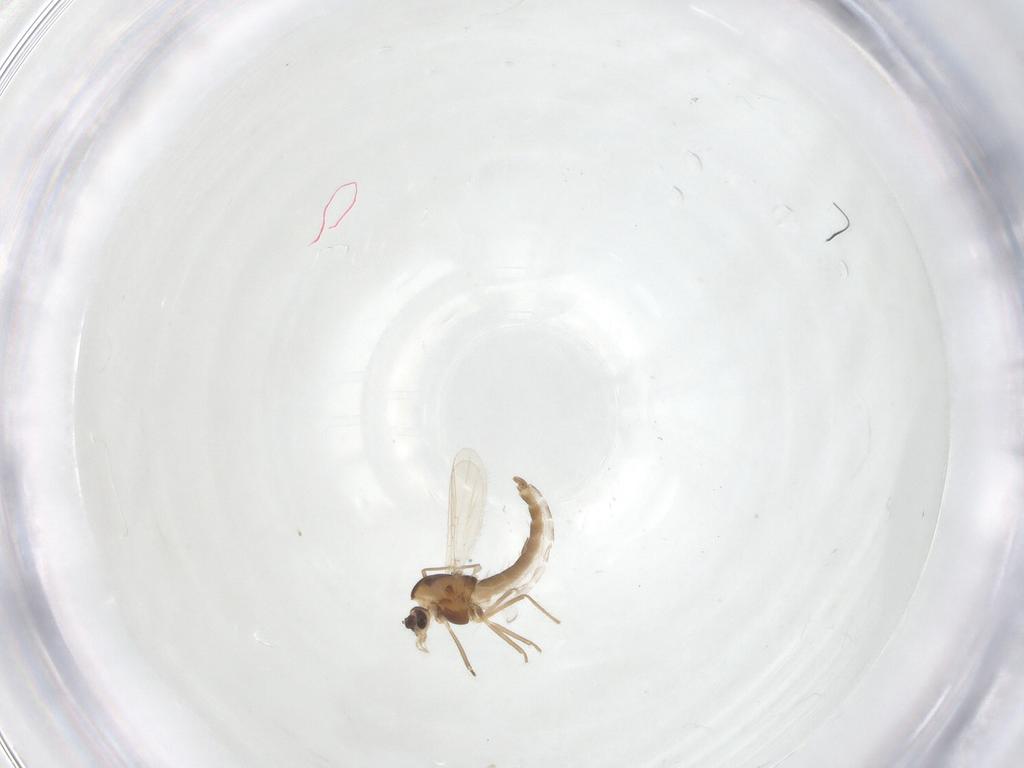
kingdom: Animalia
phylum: Arthropoda
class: Insecta
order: Diptera
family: Chironomidae
